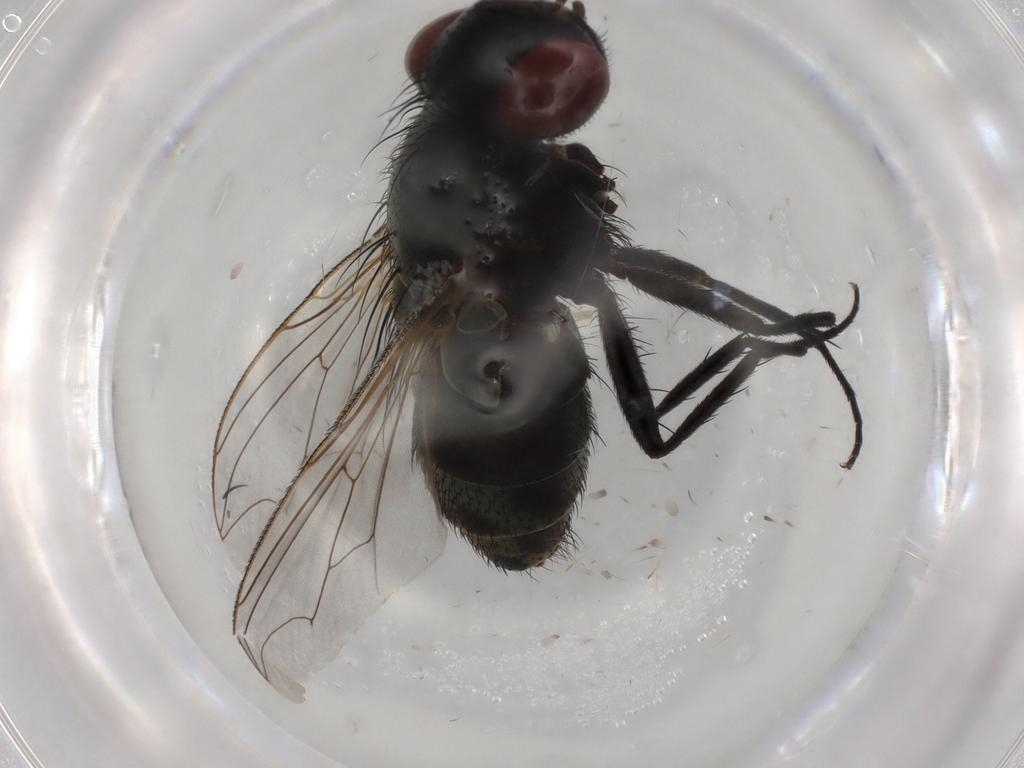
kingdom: Animalia
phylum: Arthropoda
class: Insecta
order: Diptera
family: Sarcophagidae
